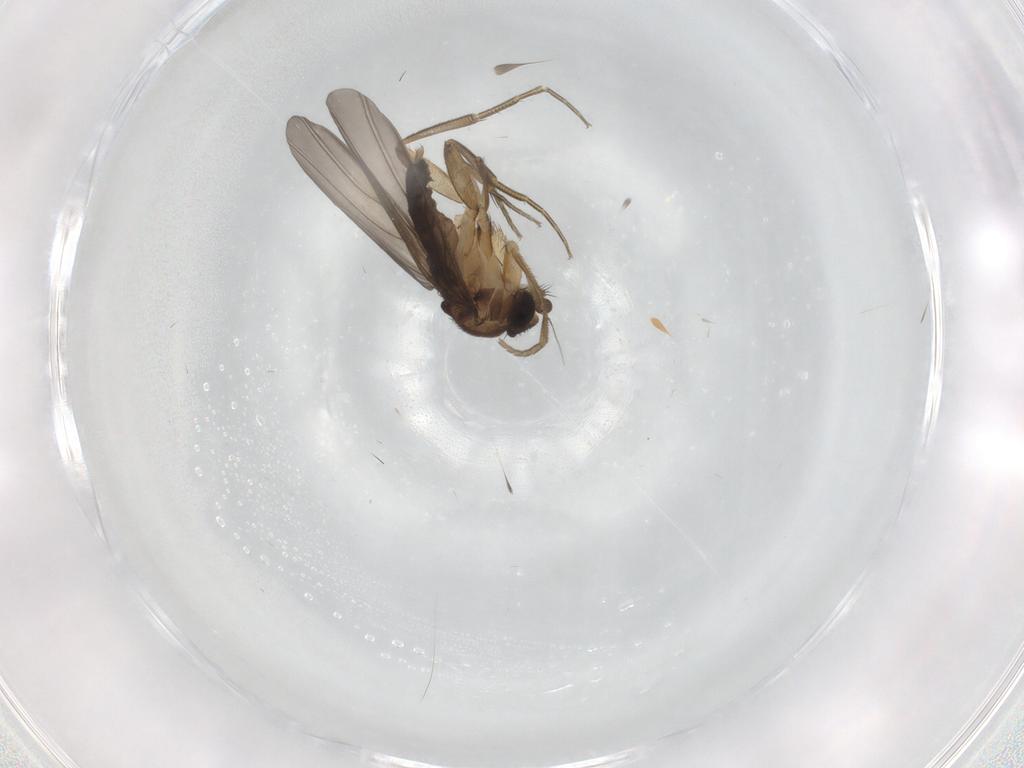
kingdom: Animalia
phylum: Arthropoda
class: Insecta
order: Diptera
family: Phoridae
